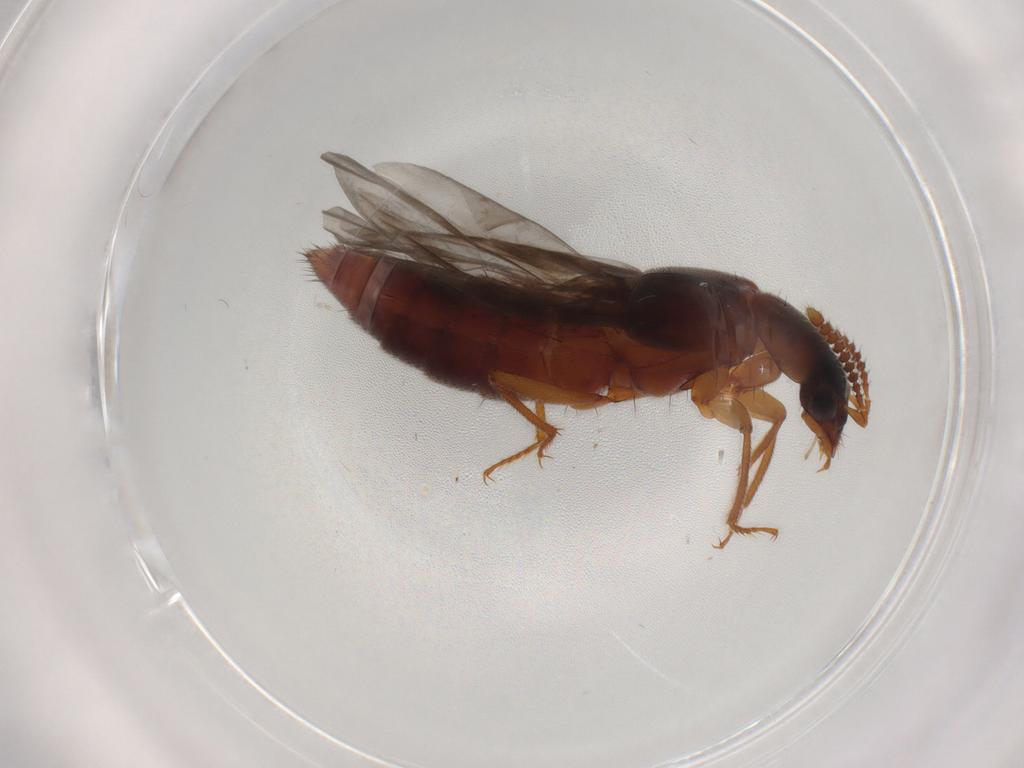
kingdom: Animalia
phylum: Arthropoda
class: Insecta
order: Coleoptera
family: Staphylinidae
